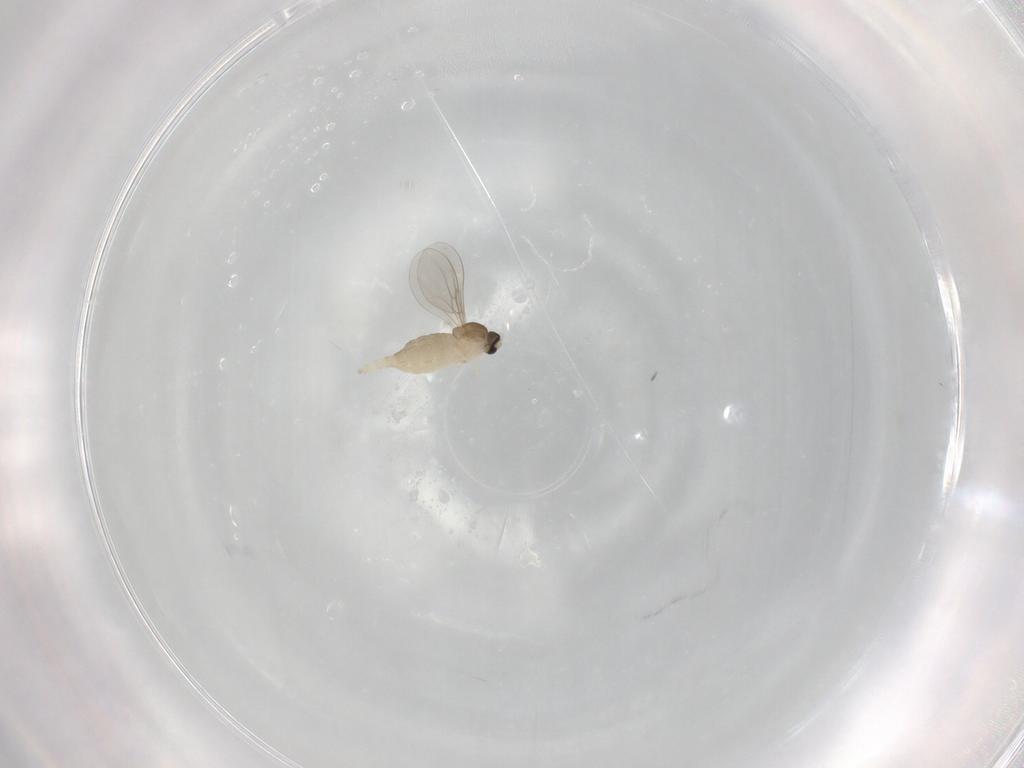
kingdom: Animalia
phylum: Arthropoda
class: Insecta
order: Diptera
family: Cecidomyiidae
